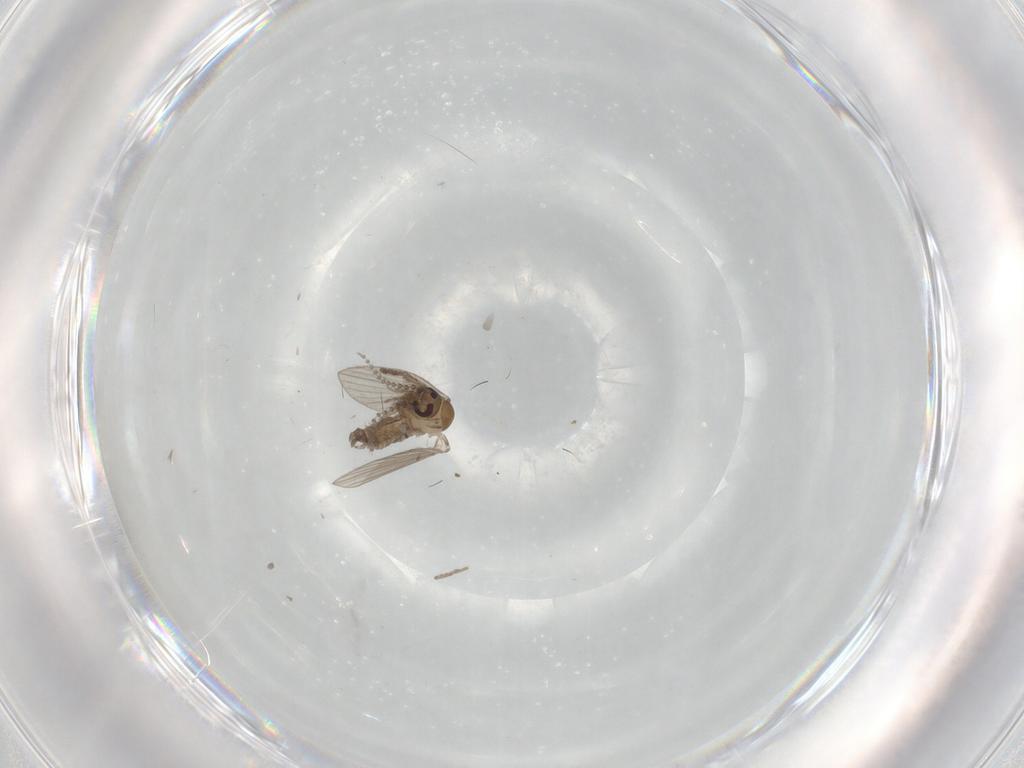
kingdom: Animalia
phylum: Arthropoda
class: Insecta
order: Diptera
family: Psychodidae
